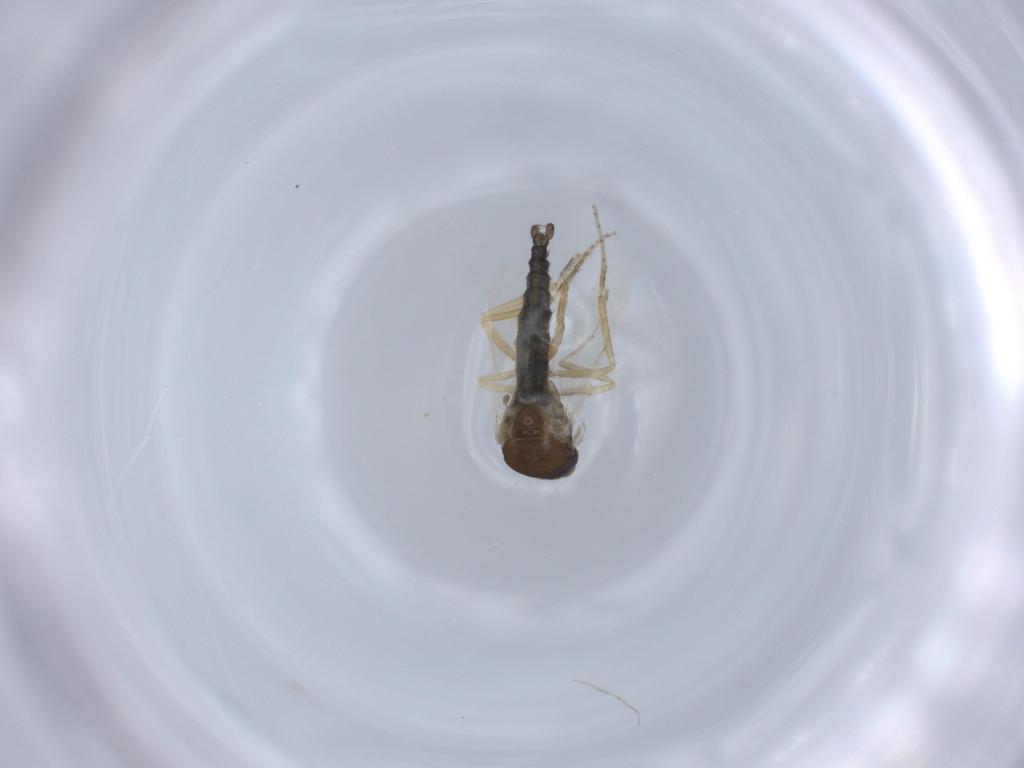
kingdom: Animalia
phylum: Arthropoda
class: Insecta
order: Diptera
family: Ceratopogonidae
